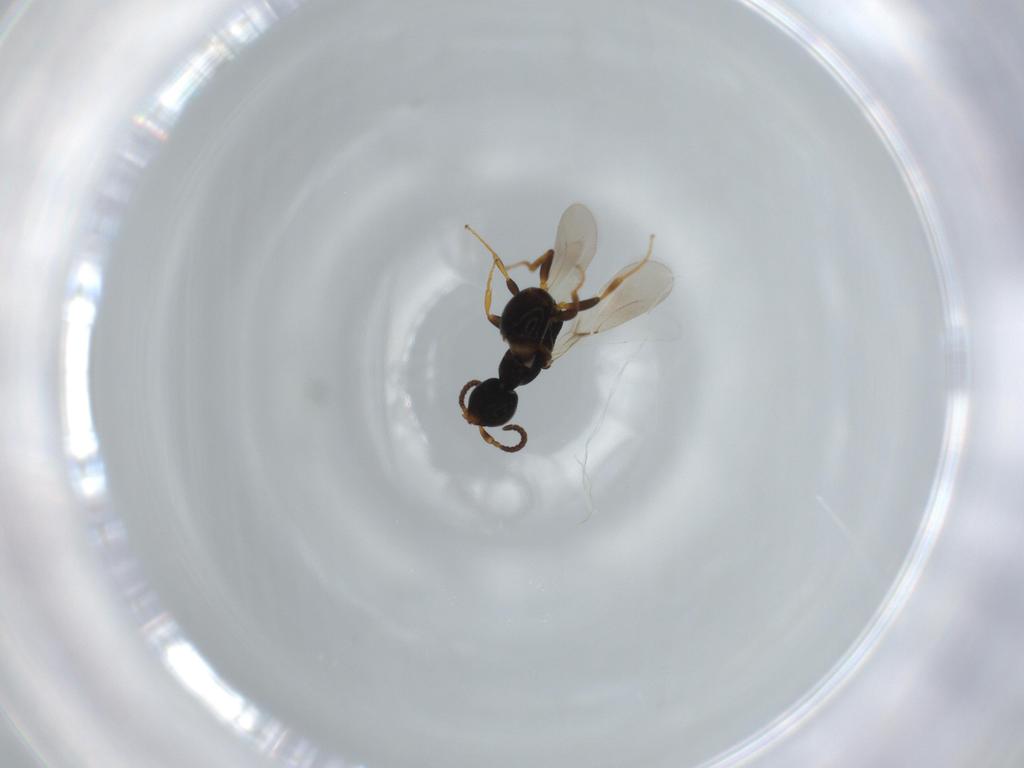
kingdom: Animalia
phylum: Arthropoda
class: Insecta
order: Hymenoptera
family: Bethylidae
